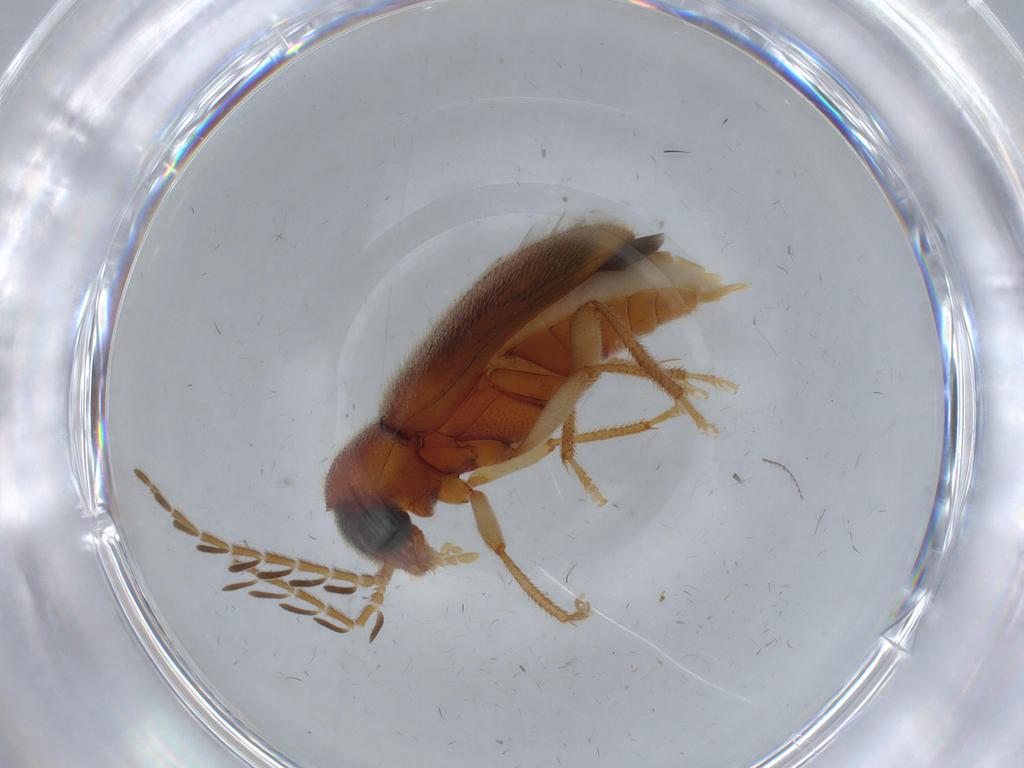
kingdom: Animalia
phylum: Arthropoda
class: Insecta
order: Coleoptera
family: Ptilodactylidae
